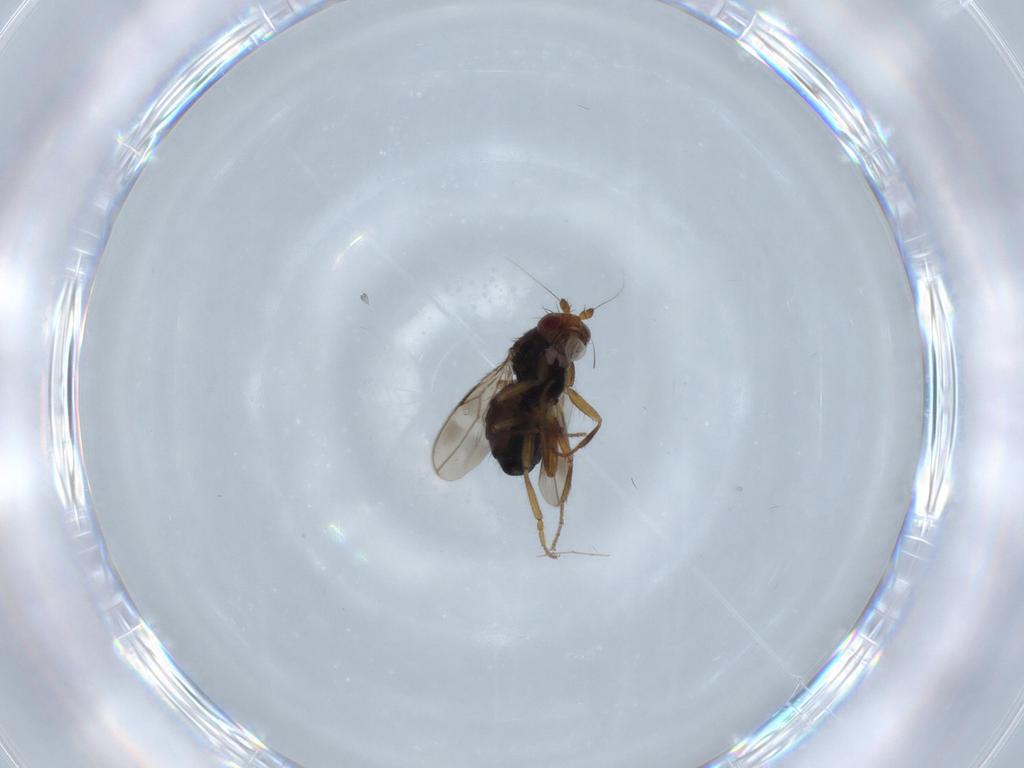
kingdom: Animalia
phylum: Arthropoda
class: Insecta
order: Diptera
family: Sphaeroceridae
